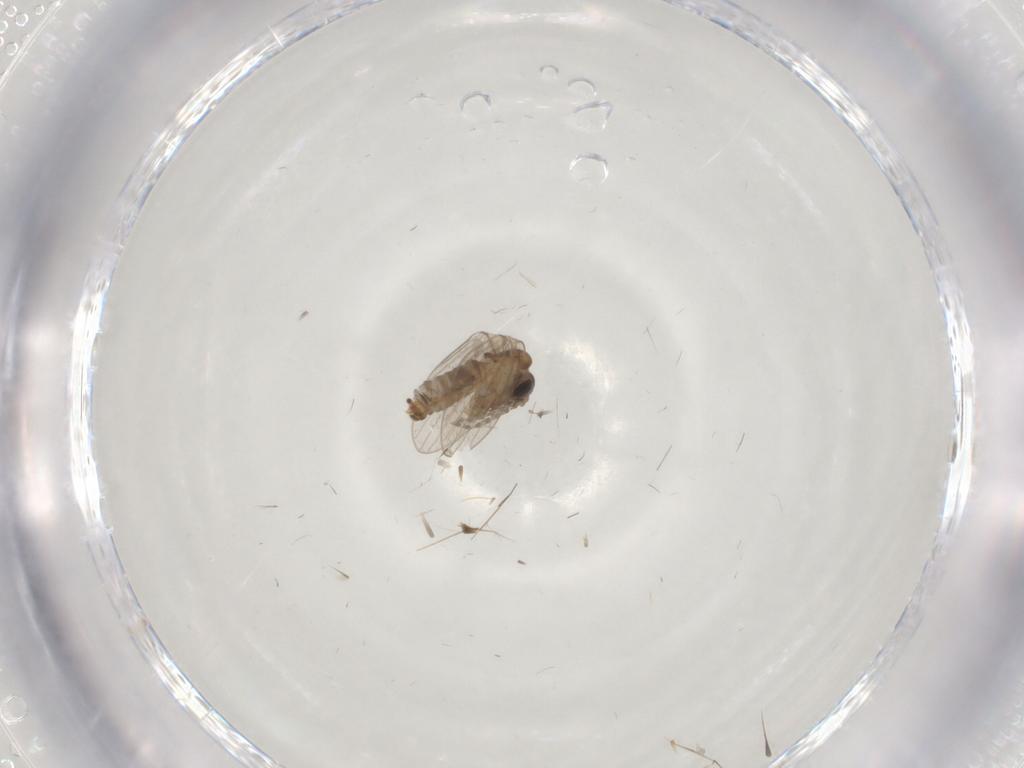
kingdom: Animalia
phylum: Arthropoda
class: Insecta
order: Diptera
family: Psychodidae
